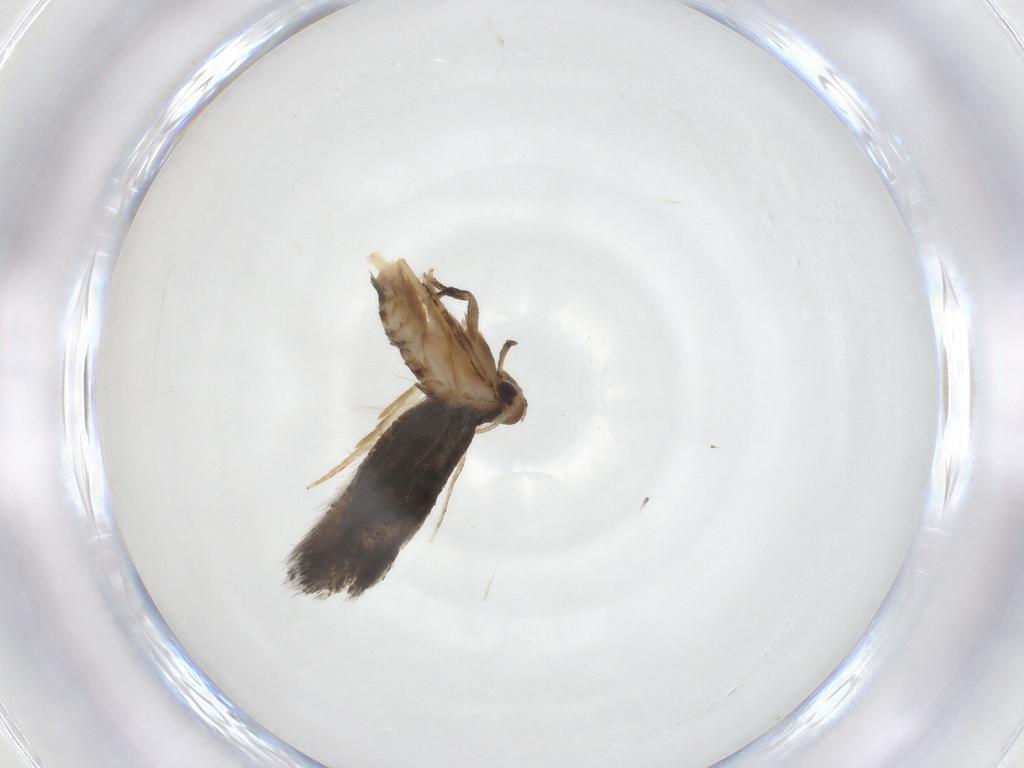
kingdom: Animalia
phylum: Arthropoda
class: Insecta
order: Lepidoptera
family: Elachistidae
